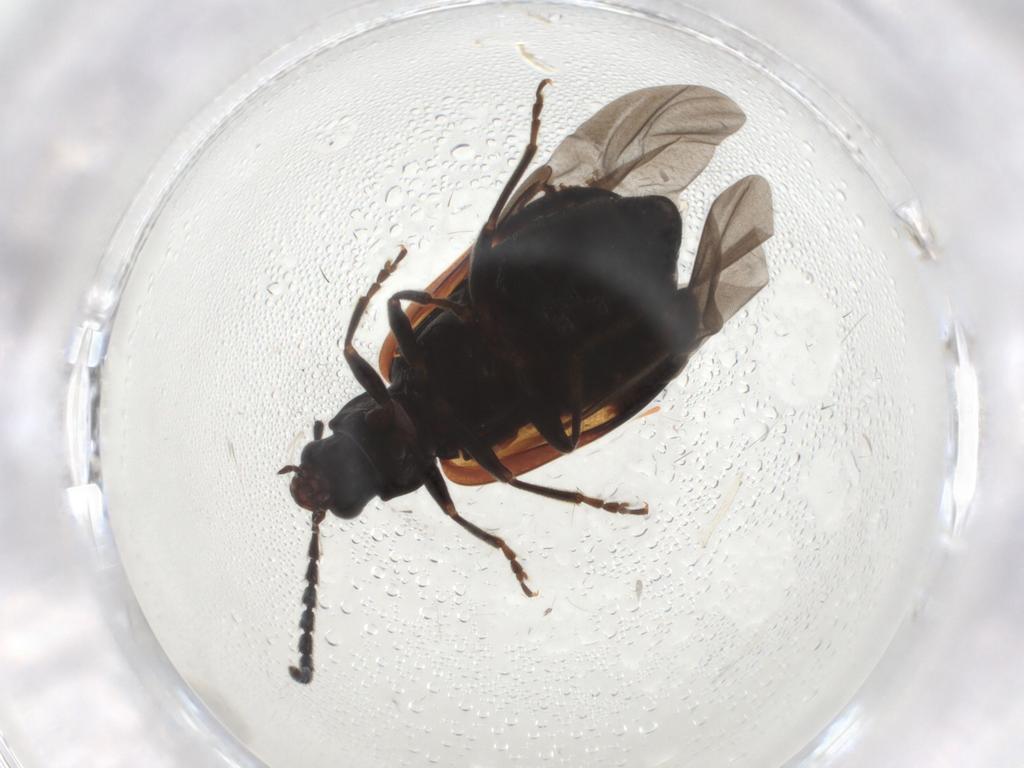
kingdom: Animalia
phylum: Arthropoda
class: Insecta
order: Coleoptera
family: Chrysomelidae
